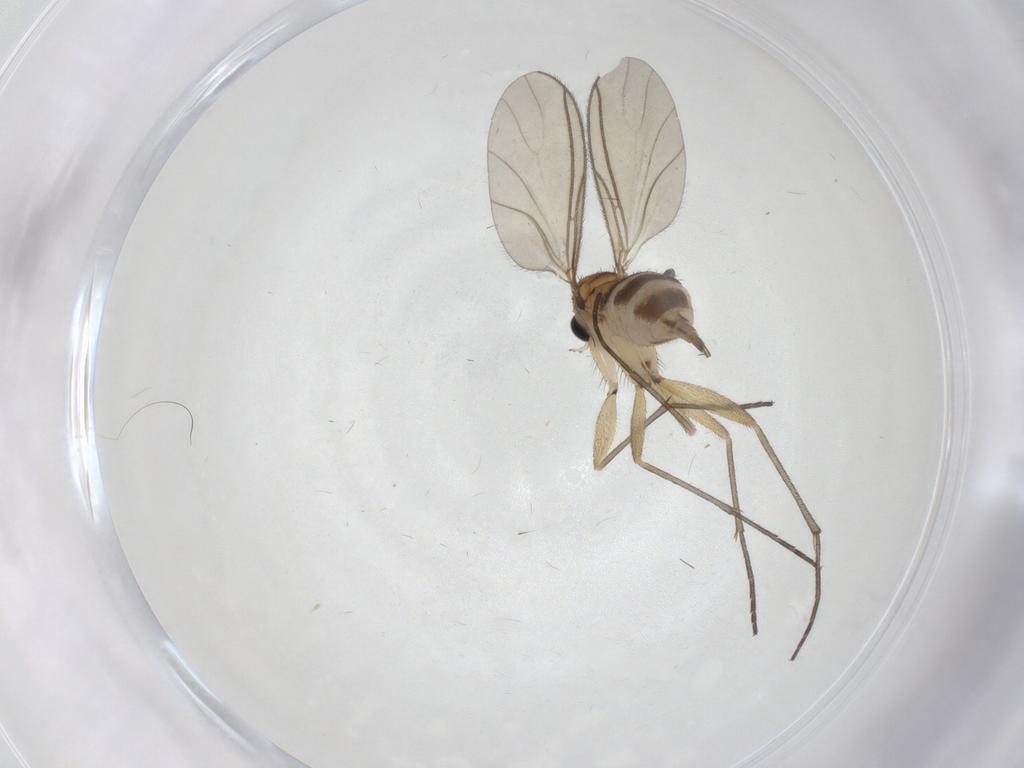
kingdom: Animalia
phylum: Arthropoda
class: Insecta
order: Diptera
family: Sciaridae
